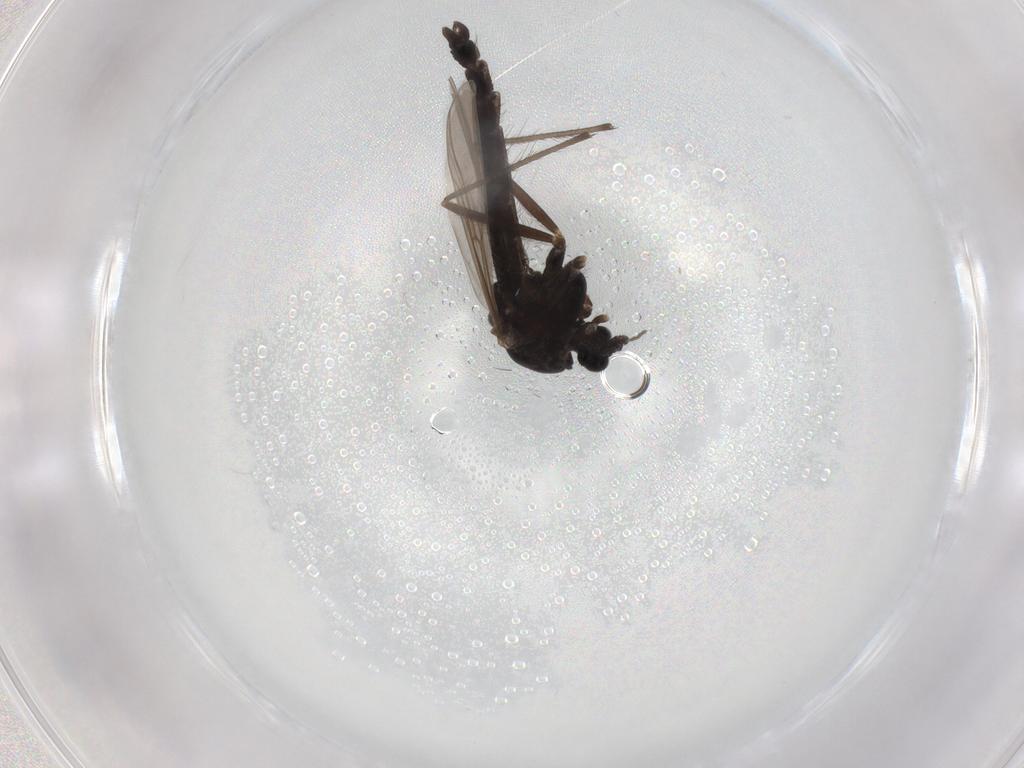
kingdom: Animalia
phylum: Arthropoda
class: Insecta
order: Diptera
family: Chironomidae
